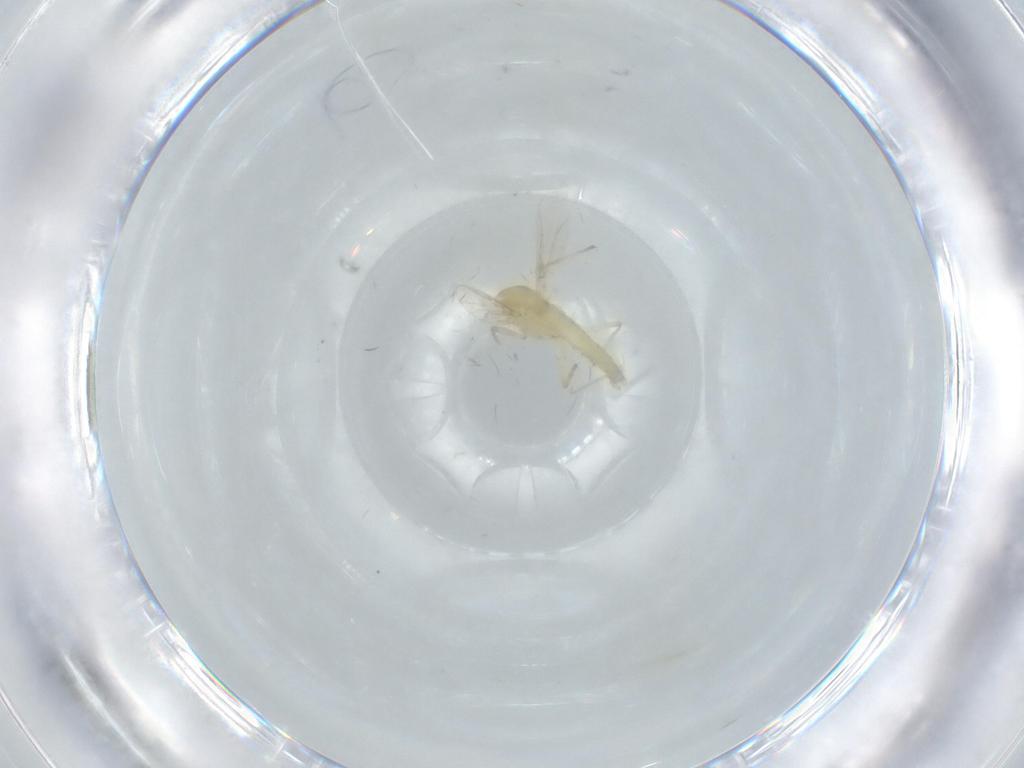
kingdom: Animalia
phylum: Arthropoda
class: Insecta
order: Diptera
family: Chironomidae
